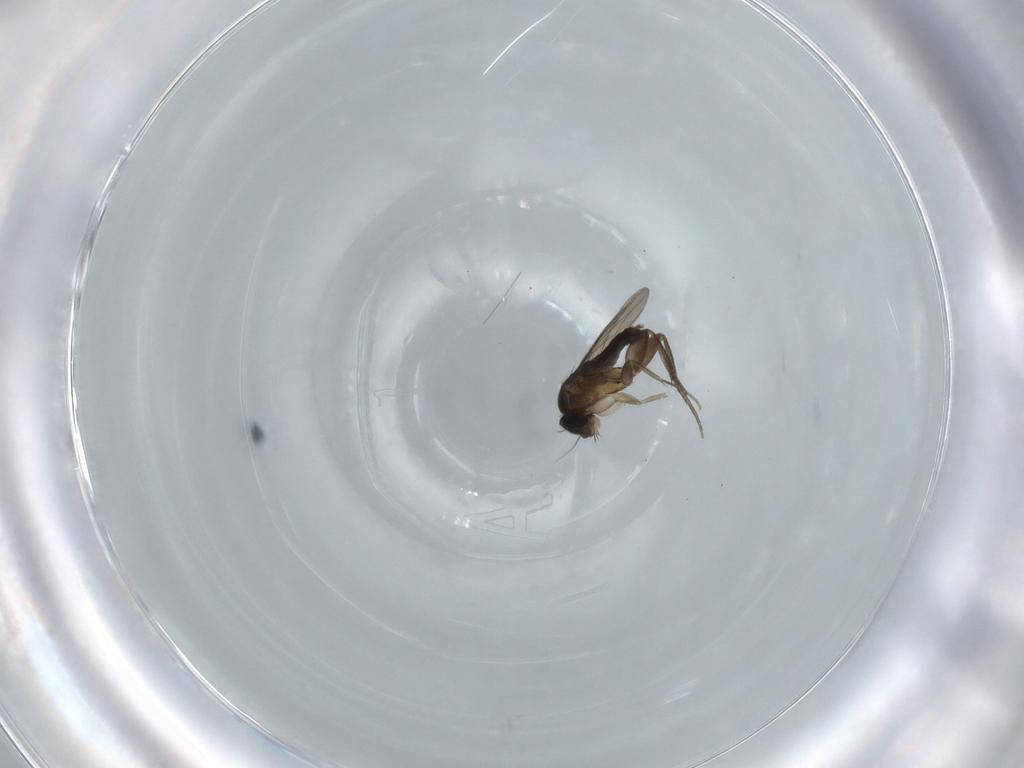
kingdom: Animalia
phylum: Arthropoda
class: Insecta
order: Diptera
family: Phoridae
